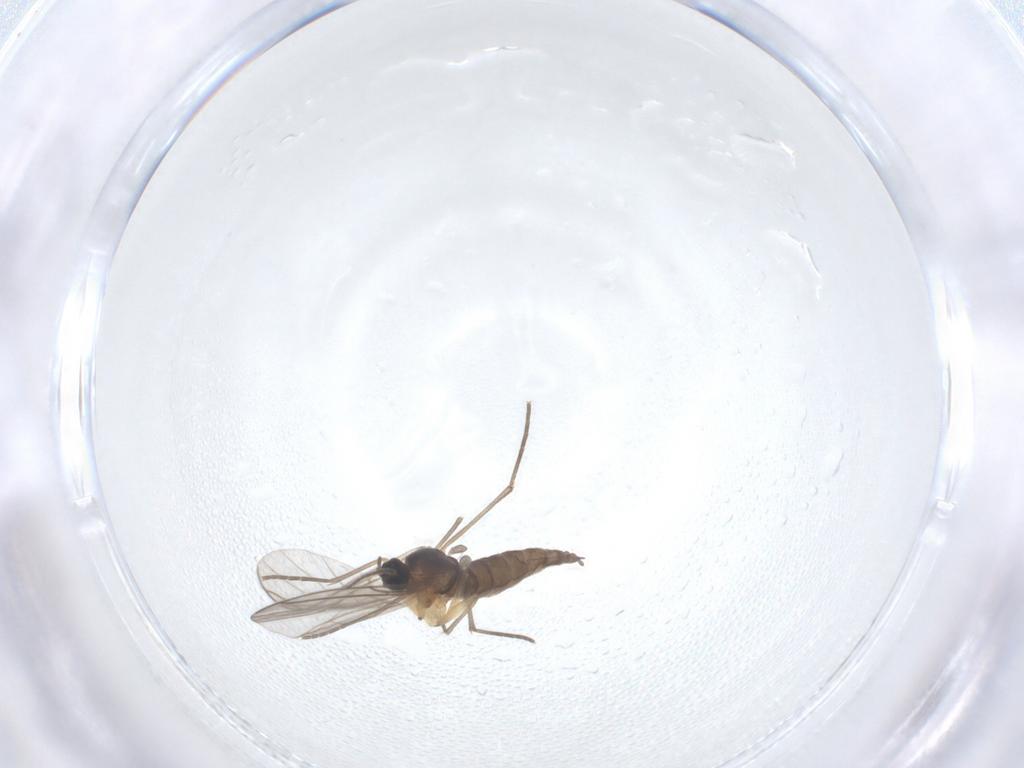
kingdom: Animalia
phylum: Arthropoda
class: Insecta
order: Diptera
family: Sciaridae
